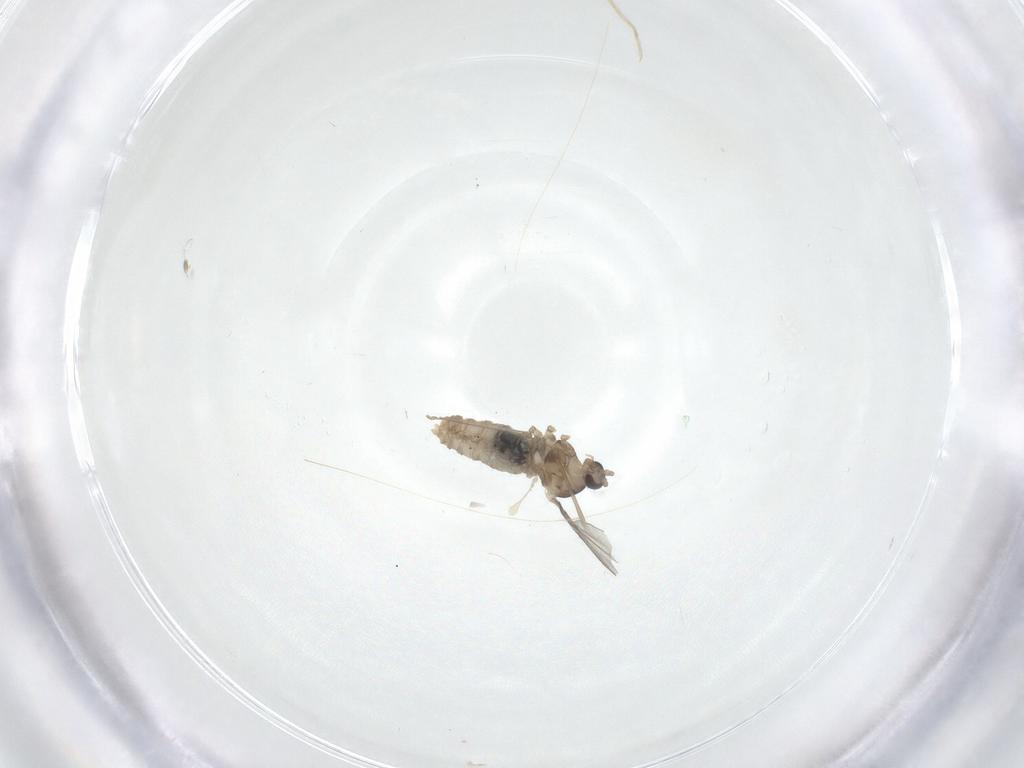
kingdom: Animalia
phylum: Arthropoda
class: Insecta
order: Diptera
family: Cecidomyiidae
